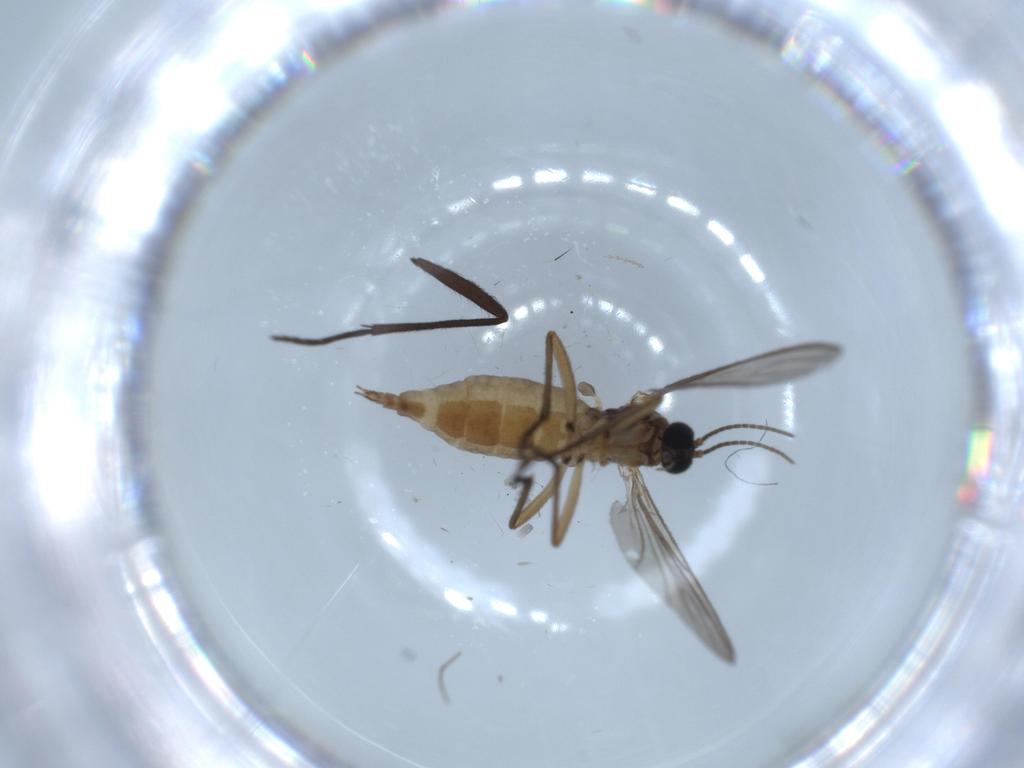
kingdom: Animalia
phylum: Arthropoda
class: Insecta
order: Diptera
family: Sciaridae
